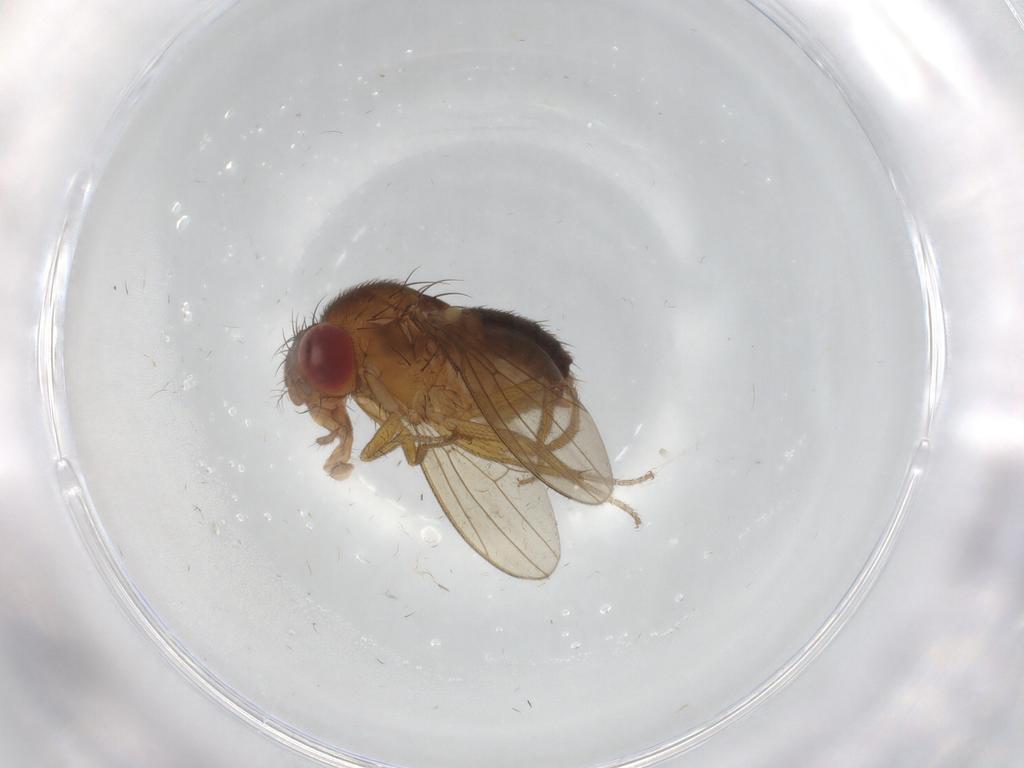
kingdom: Animalia
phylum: Arthropoda
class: Insecta
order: Diptera
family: Drosophilidae
